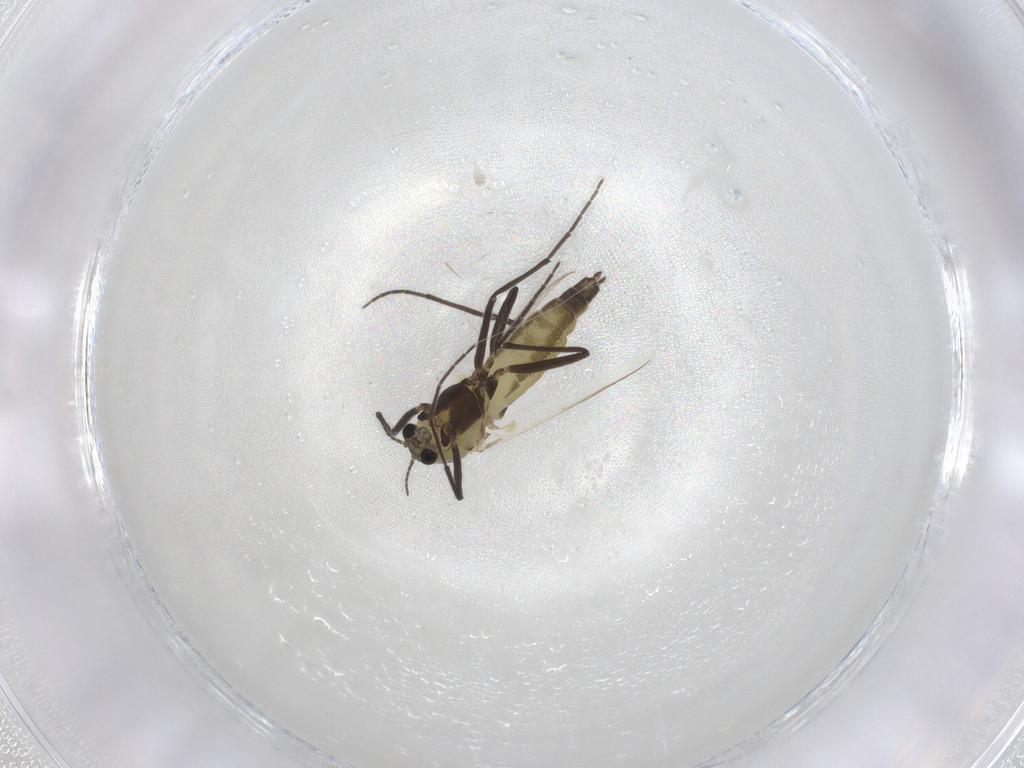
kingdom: Animalia
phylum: Arthropoda
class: Insecta
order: Diptera
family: Chironomidae
